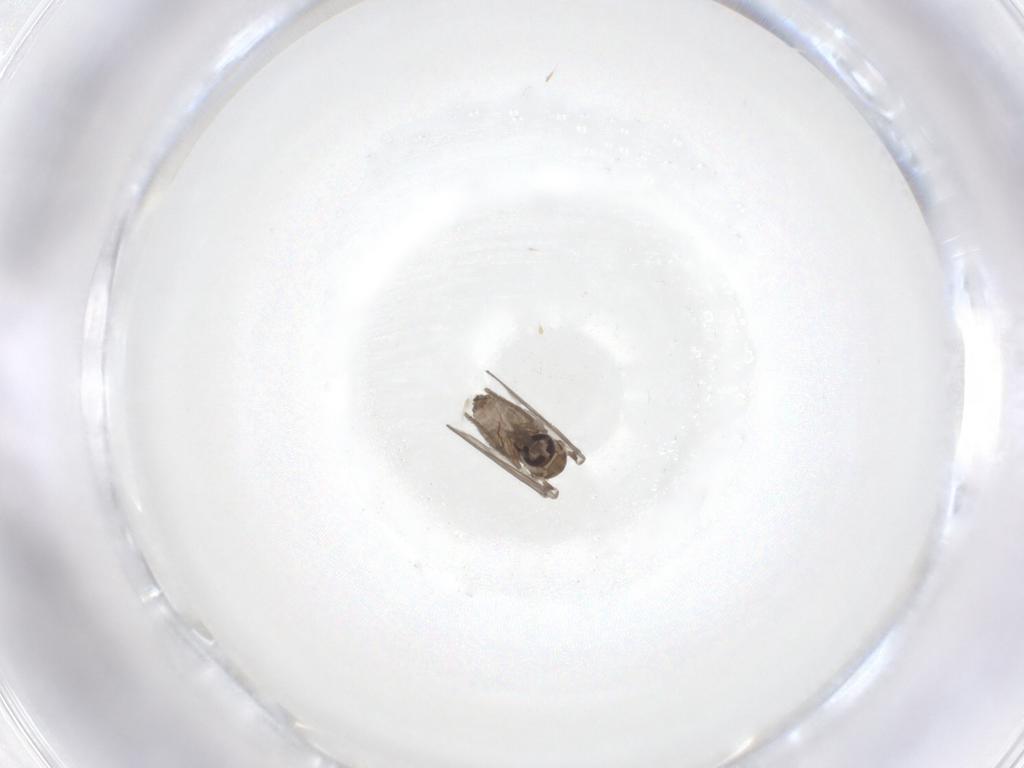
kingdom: Animalia
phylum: Arthropoda
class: Insecta
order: Diptera
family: Psychodidae
